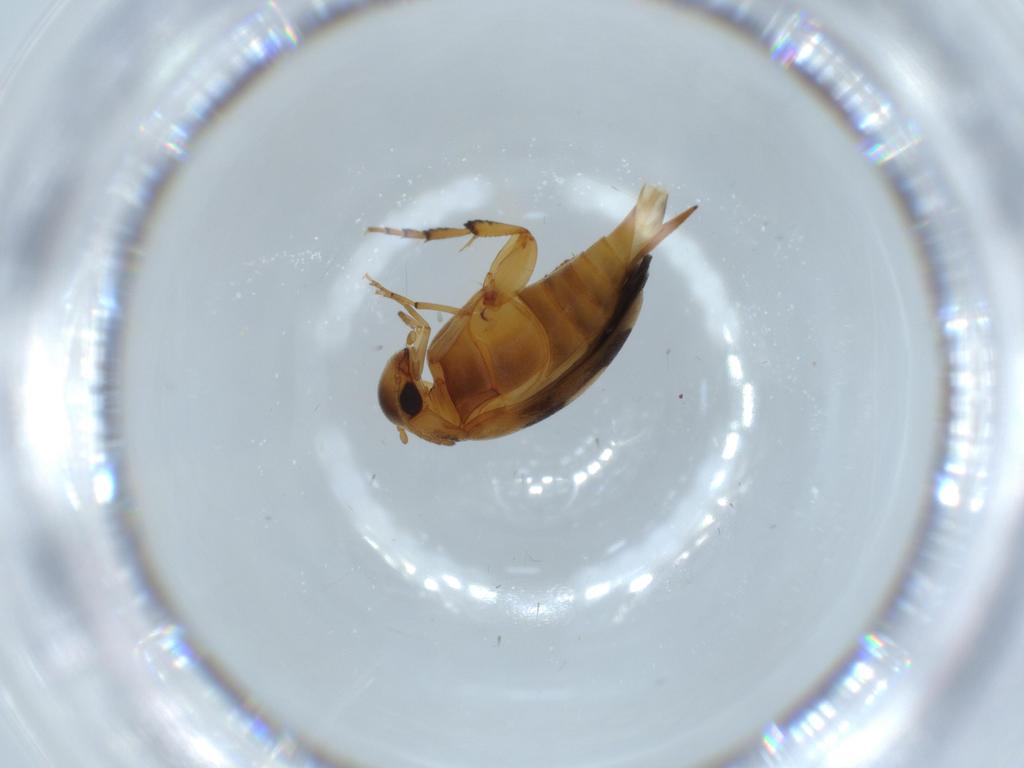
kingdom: Animalia
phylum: Arthropoda
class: Insecta
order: Coleoptera
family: Mordellidae
